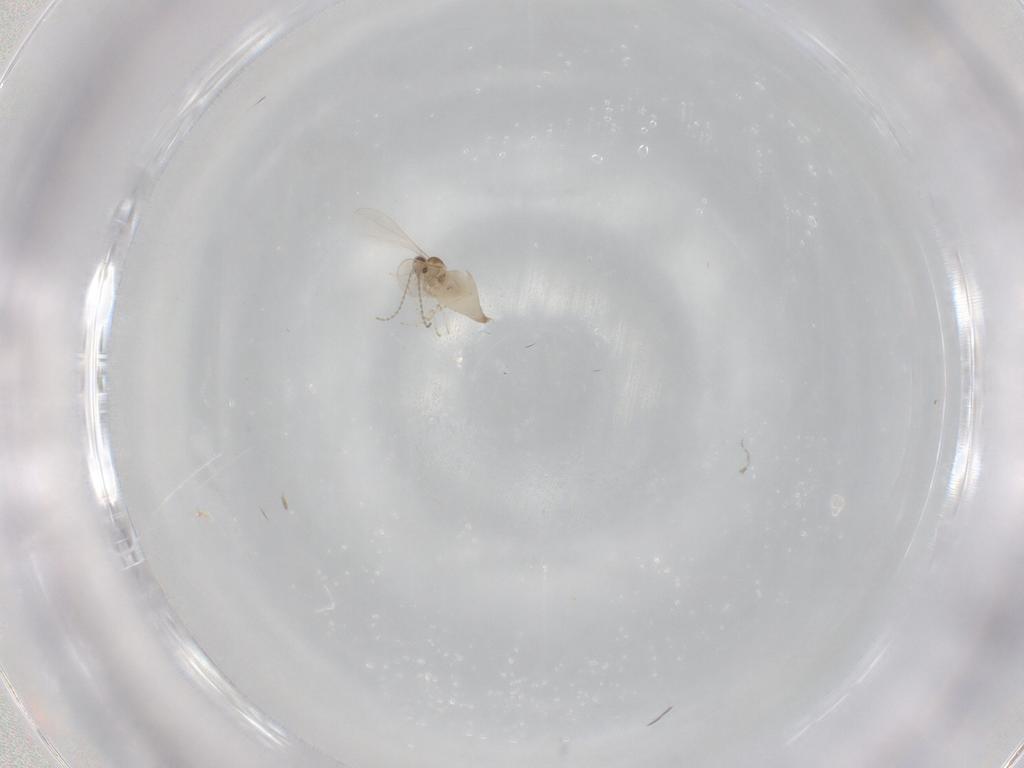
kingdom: Animalia
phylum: Arthropoda
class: Insecta
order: Diptera
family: Cecidomyiidae
